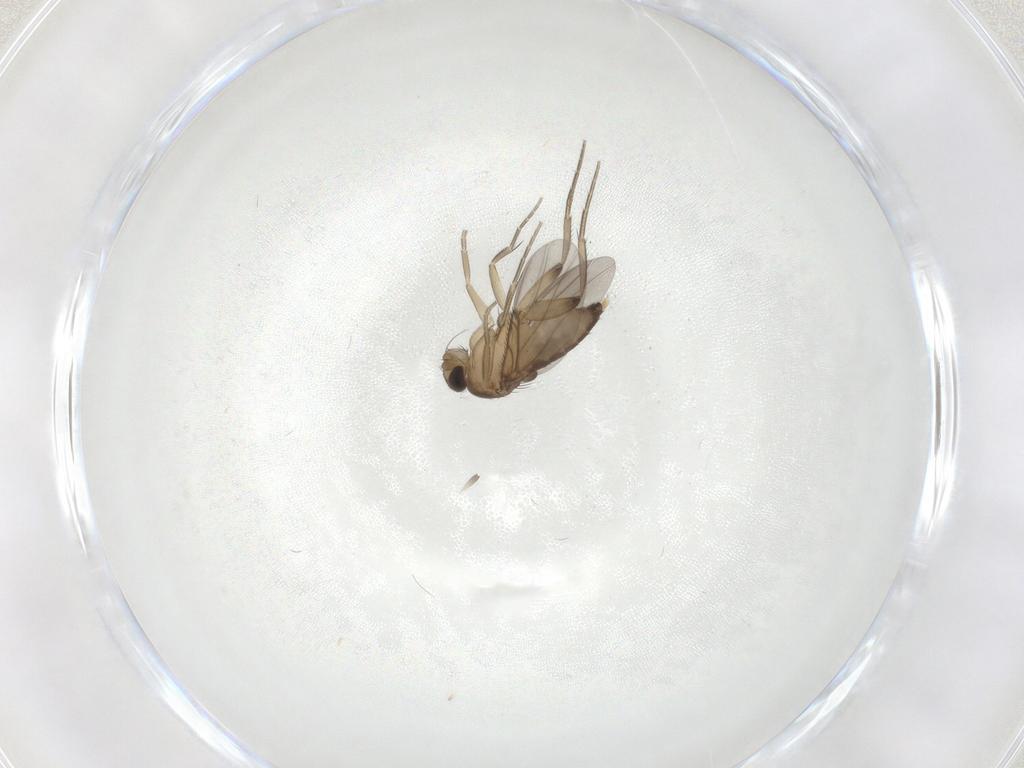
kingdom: Animalia
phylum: Arthropoda
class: Insecta
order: Diptera
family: Phoridae
